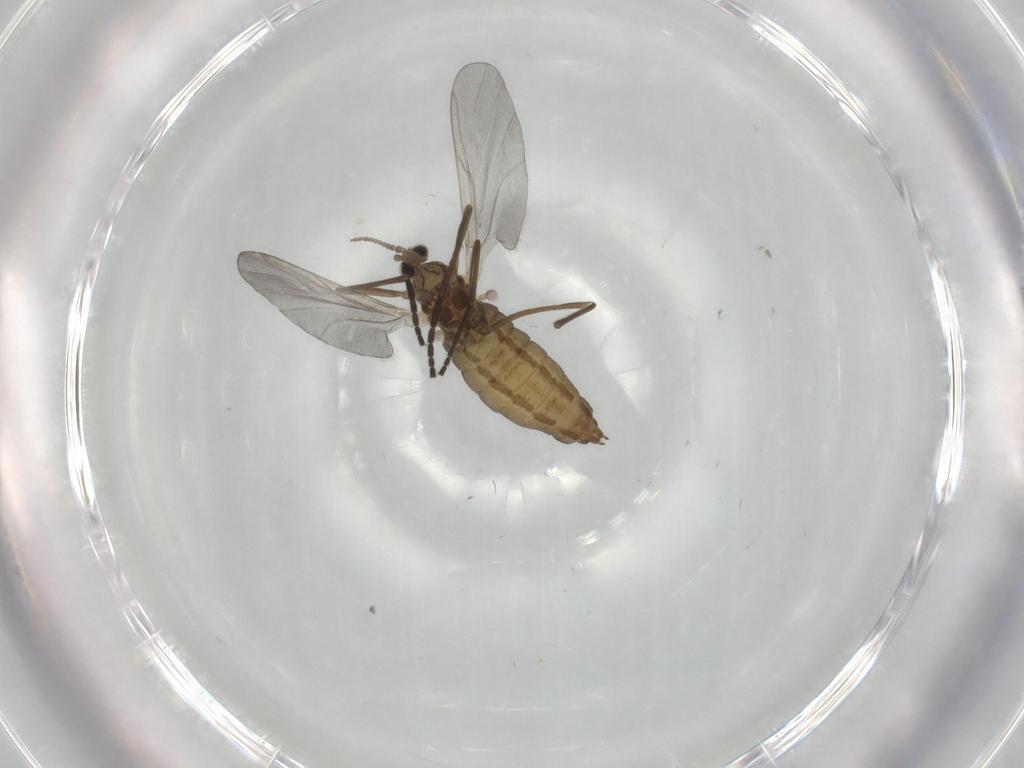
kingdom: Animalia
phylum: Arthropoda
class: Insecta
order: Diptera
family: Cecidomyiidae
